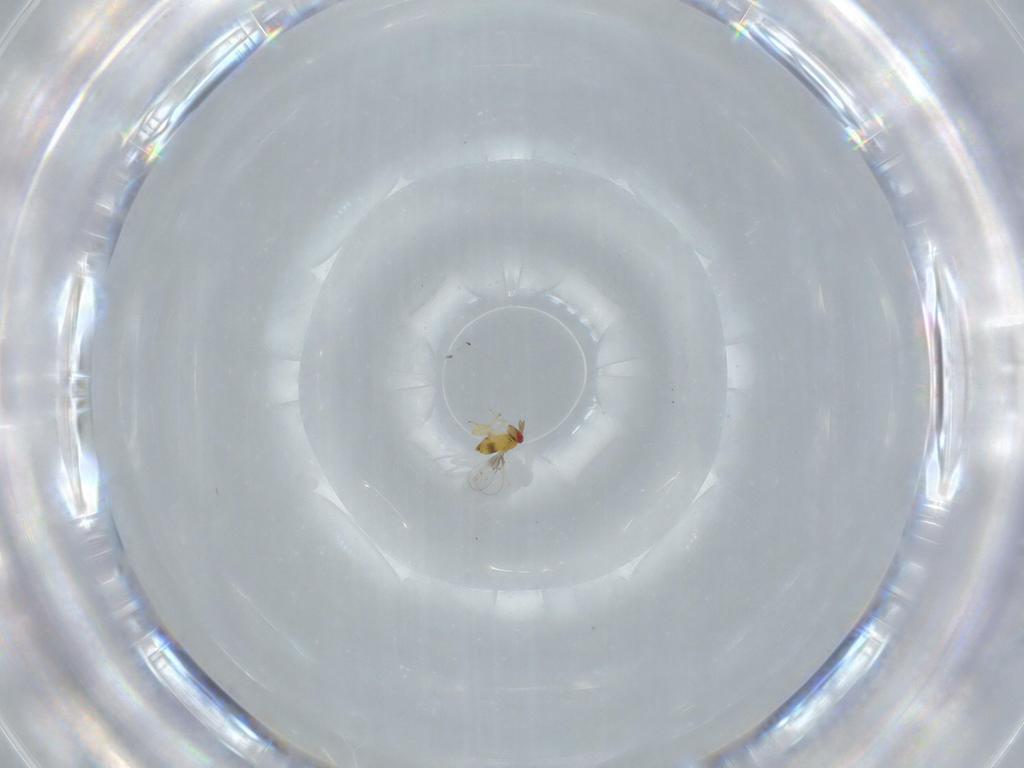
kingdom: Animalia
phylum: Arthropoda
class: Insecta
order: Hymenoptera
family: Trichogrammatidae
